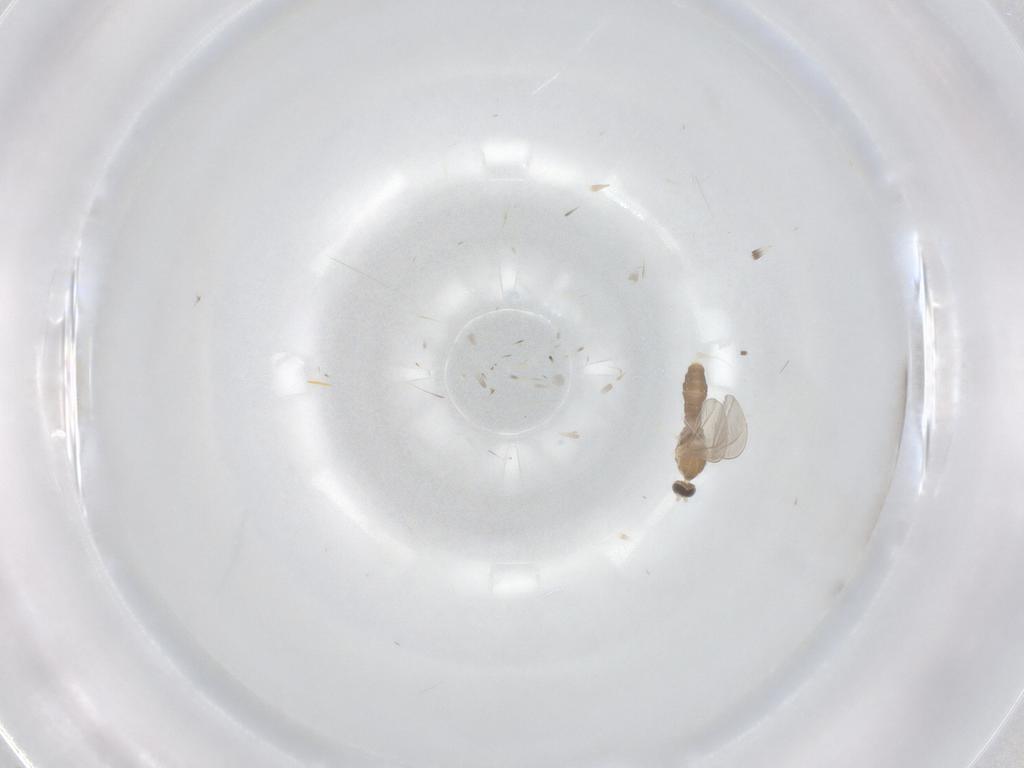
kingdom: Animalia
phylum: Arthropoda
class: Insecta
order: Diptera
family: Cecidomyiidae
